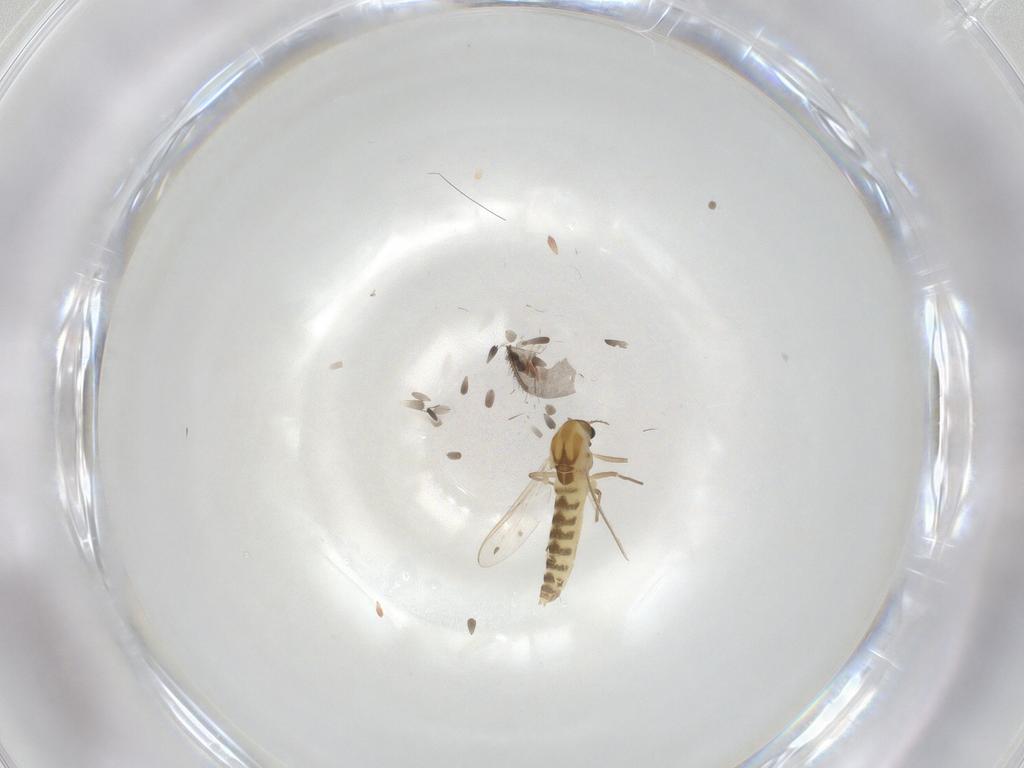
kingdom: Animalia
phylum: Arthropoda
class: Insecta
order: Diptera
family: Chironomidae
